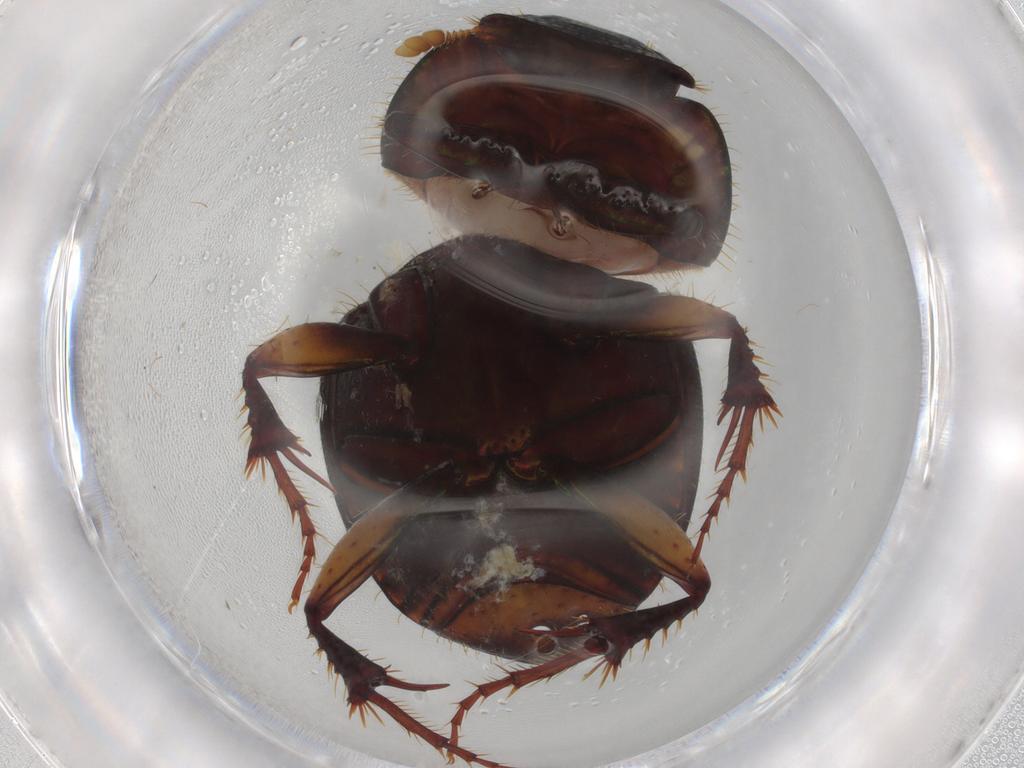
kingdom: Animalia
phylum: Arthropoda
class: Insecta
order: Coleoptera
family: Scarabaeidae
